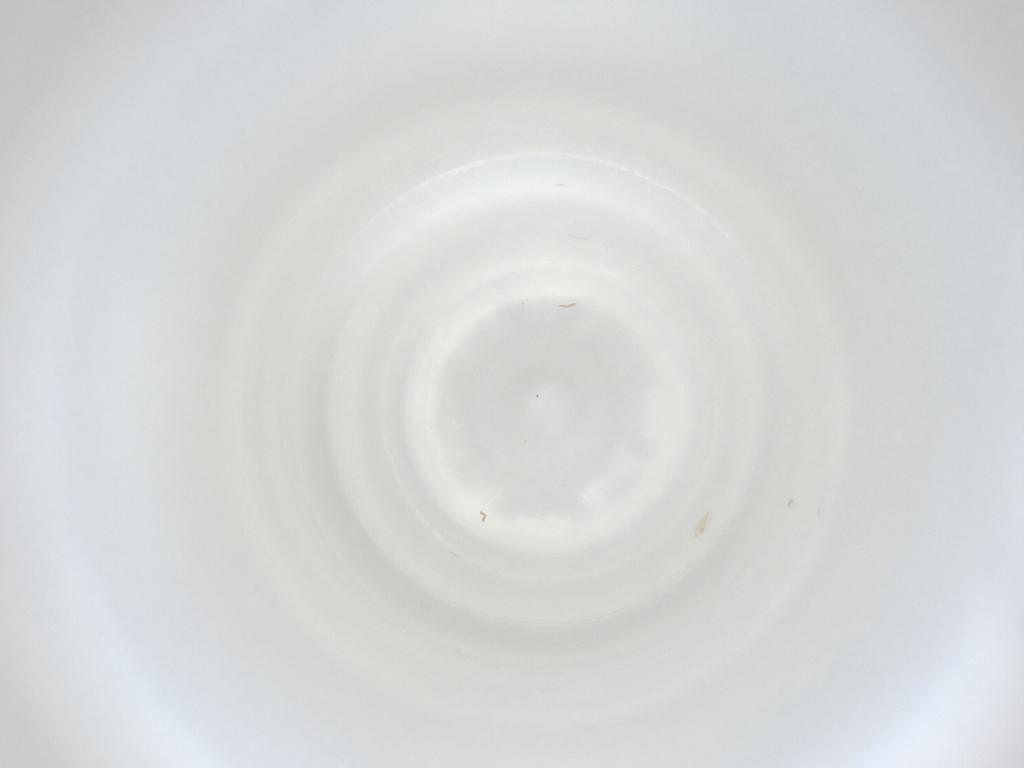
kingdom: Animalia
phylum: Arthropoda
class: Insecta
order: Diptera
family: Cecidomyiidae
